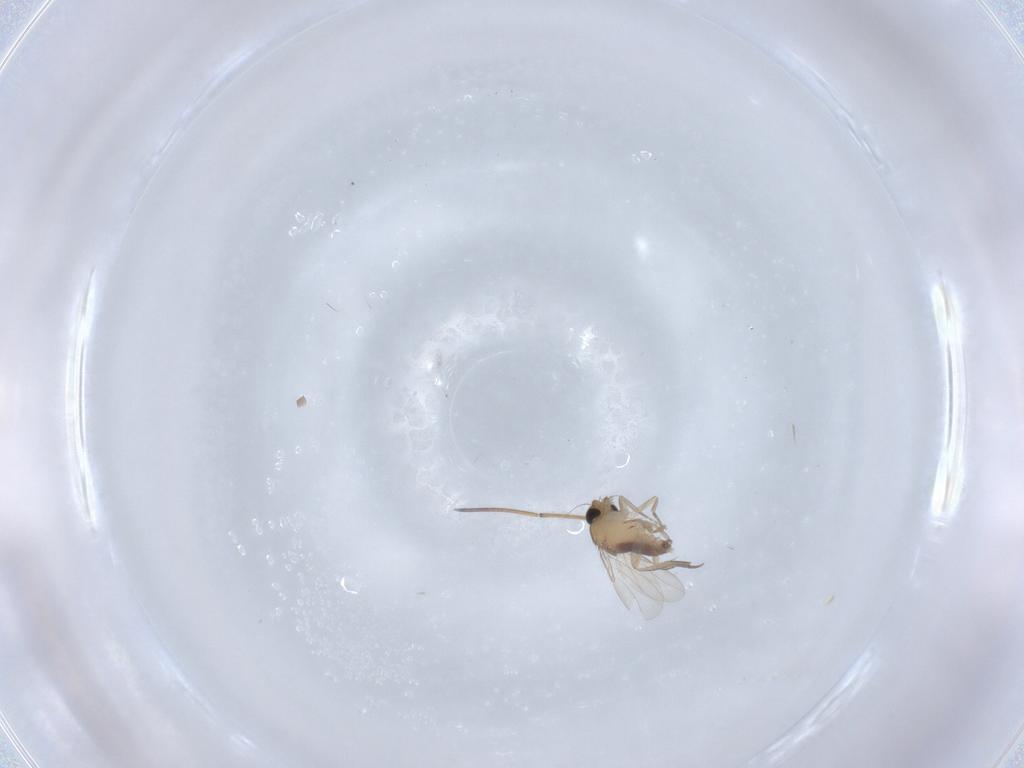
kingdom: Animalia
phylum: Arthropoda
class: Insecta
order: Diptera
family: Phoridae
